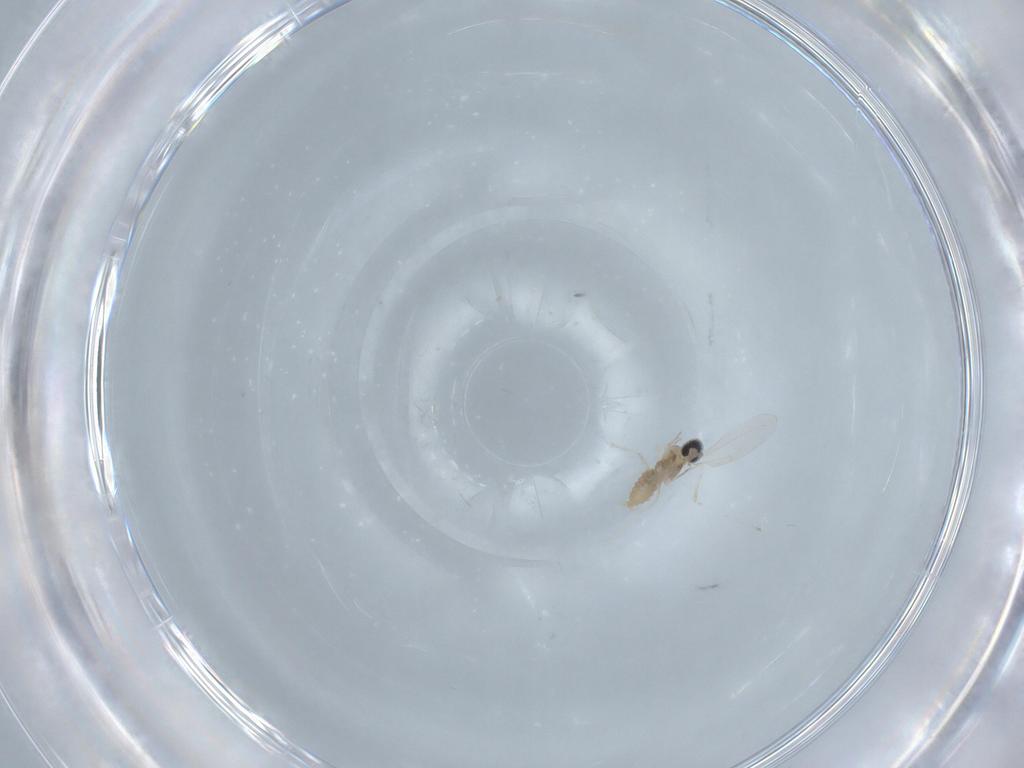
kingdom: Animalia
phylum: Arthropoda
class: Insecta
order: Diptera
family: Cecidomyiidae
